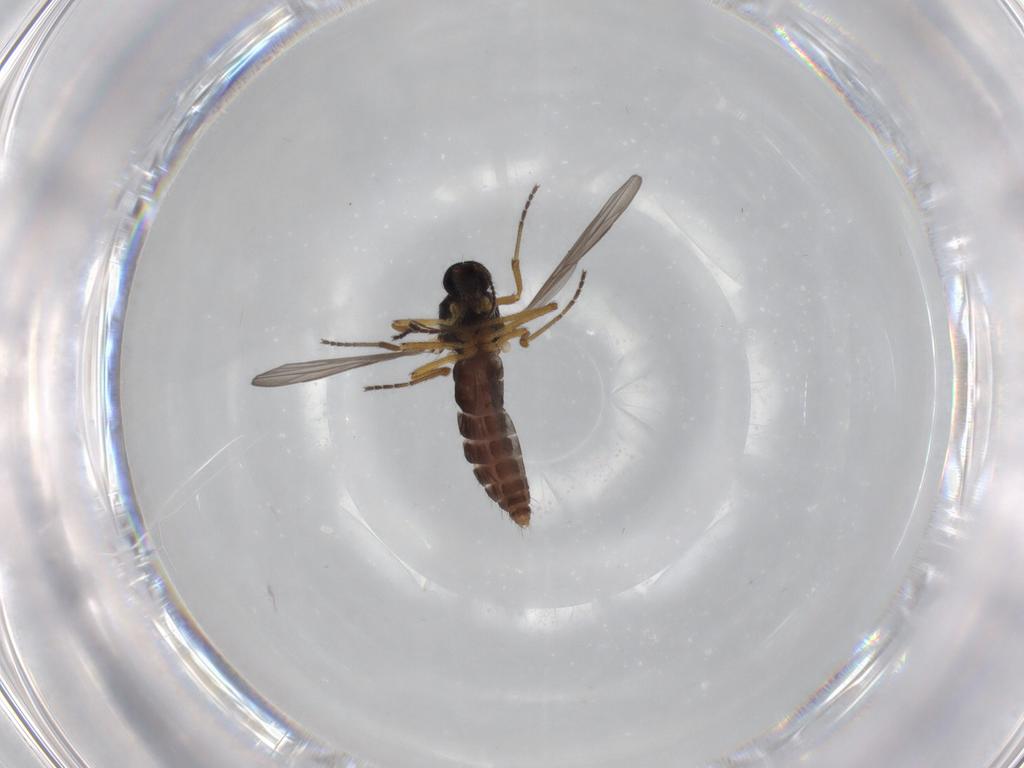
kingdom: Animalia
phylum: Arthropoda
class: Insecta
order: Diptera
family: Ceratopogonidae
